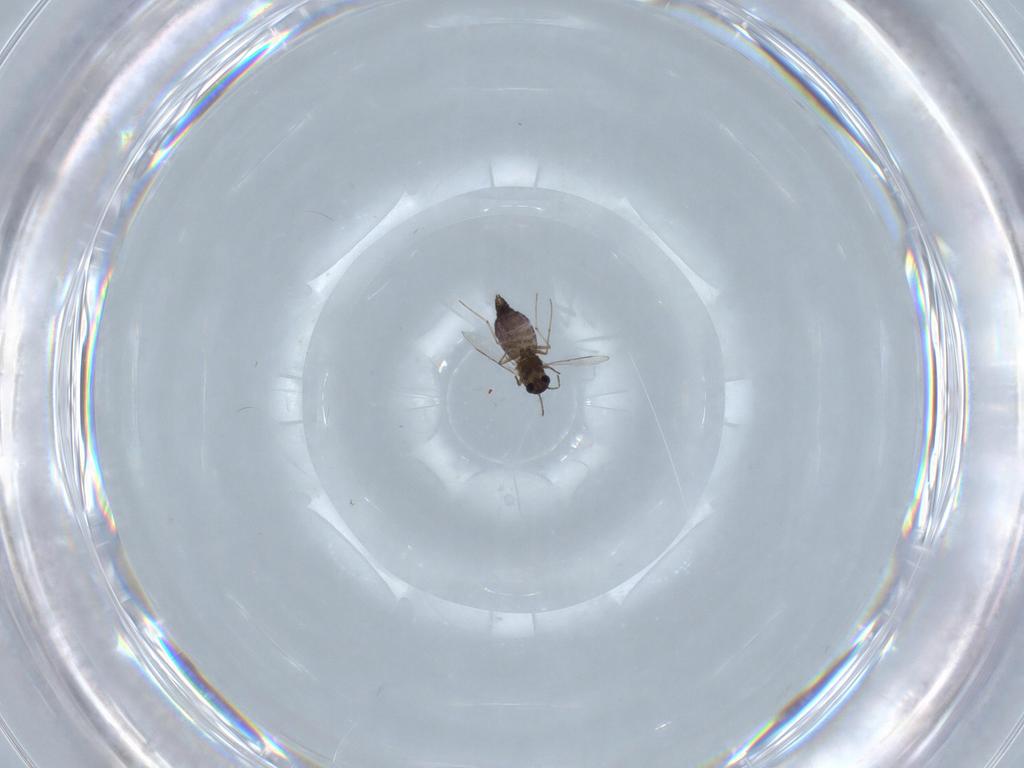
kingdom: Animalia
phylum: Arthropoda
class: Insecta
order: Diptera
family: Chironomidae
